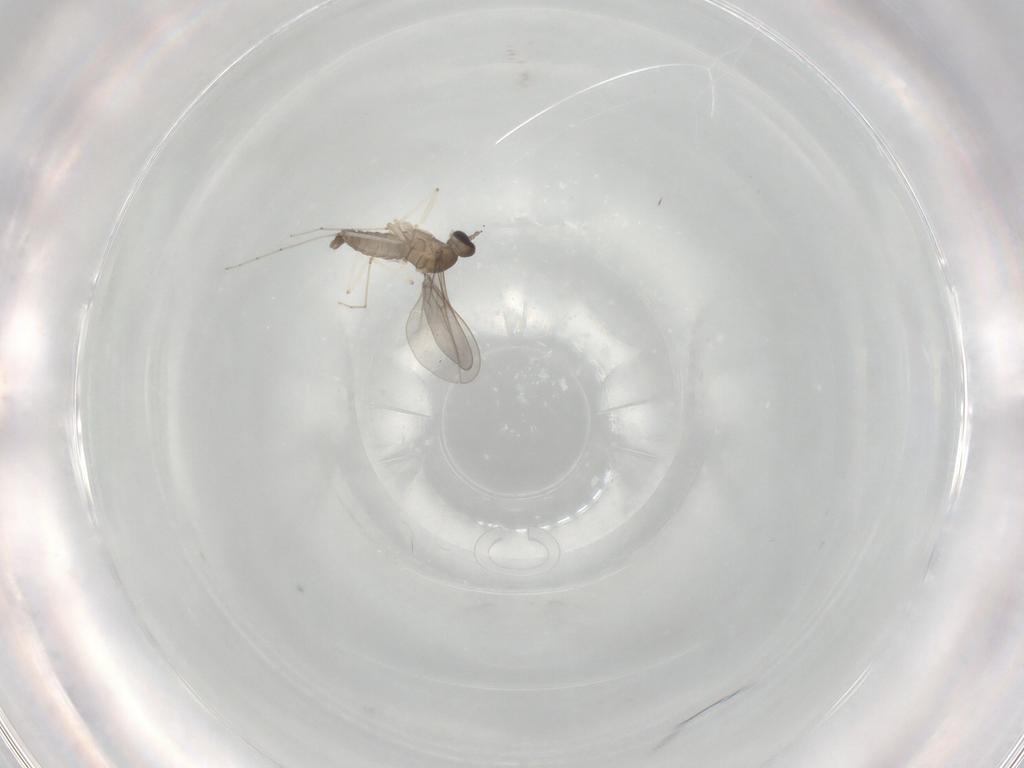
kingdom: Animalia
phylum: Arthropoda
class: Insecta
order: Diptera
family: Cecidomyiidae
